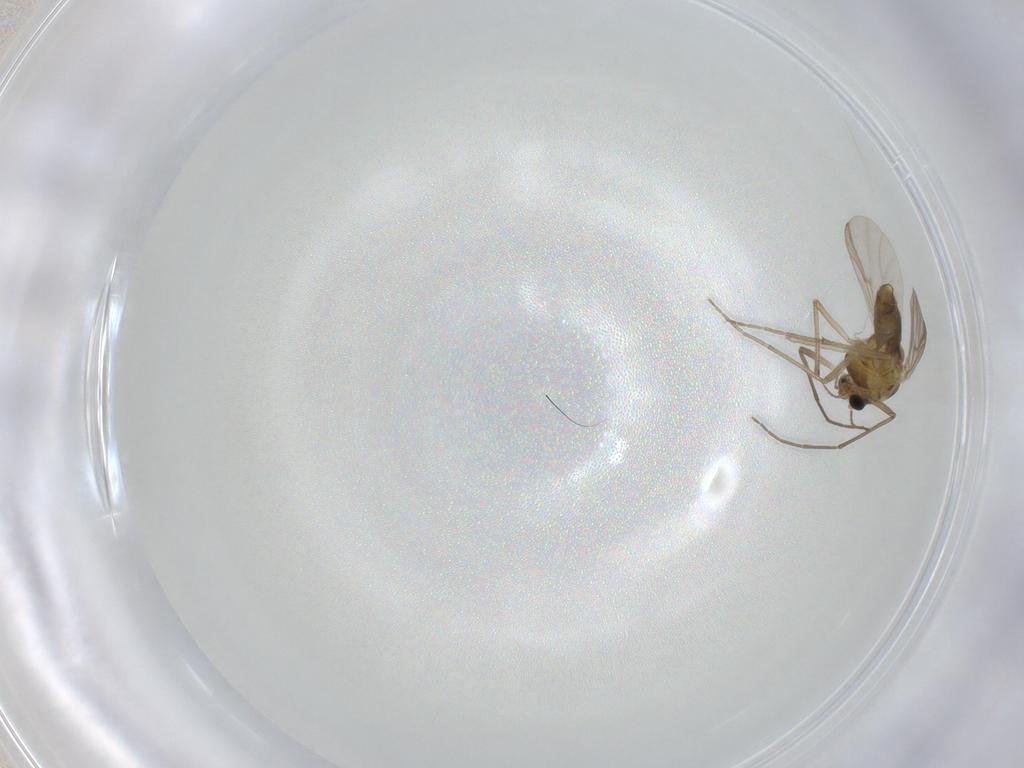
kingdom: Animalia
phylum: Arthropoda
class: Insecta
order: Diptera
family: Chironomidae
